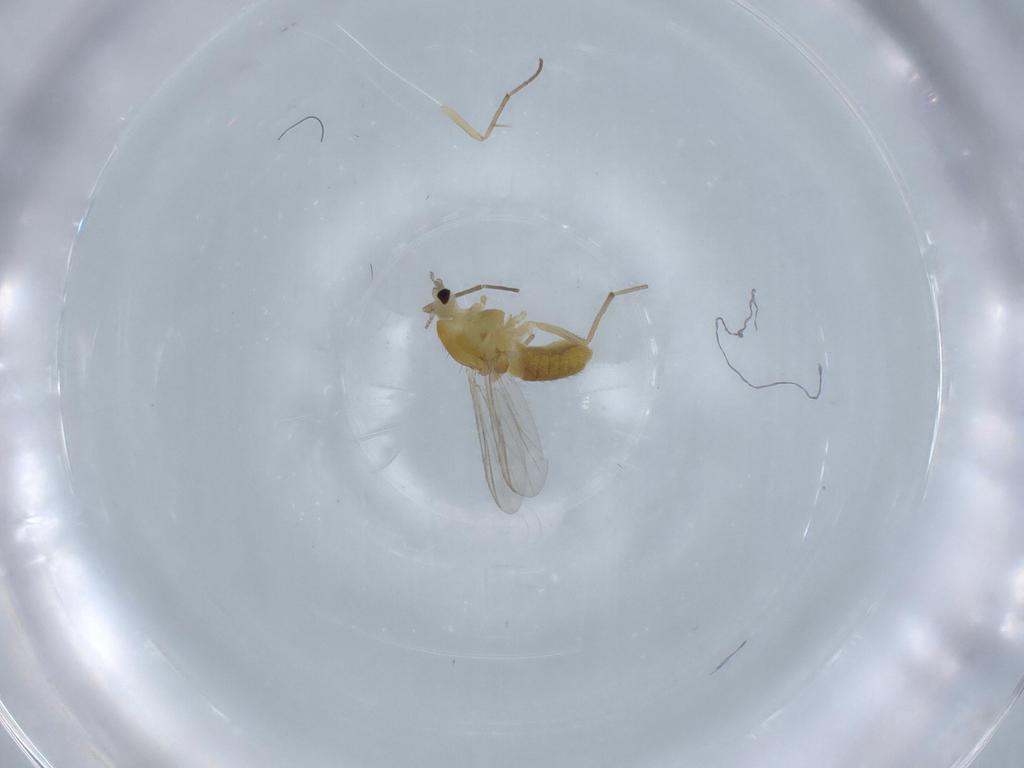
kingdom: Animalia
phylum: Arthropoda
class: Insecta
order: Diptera
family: Chironomidae
